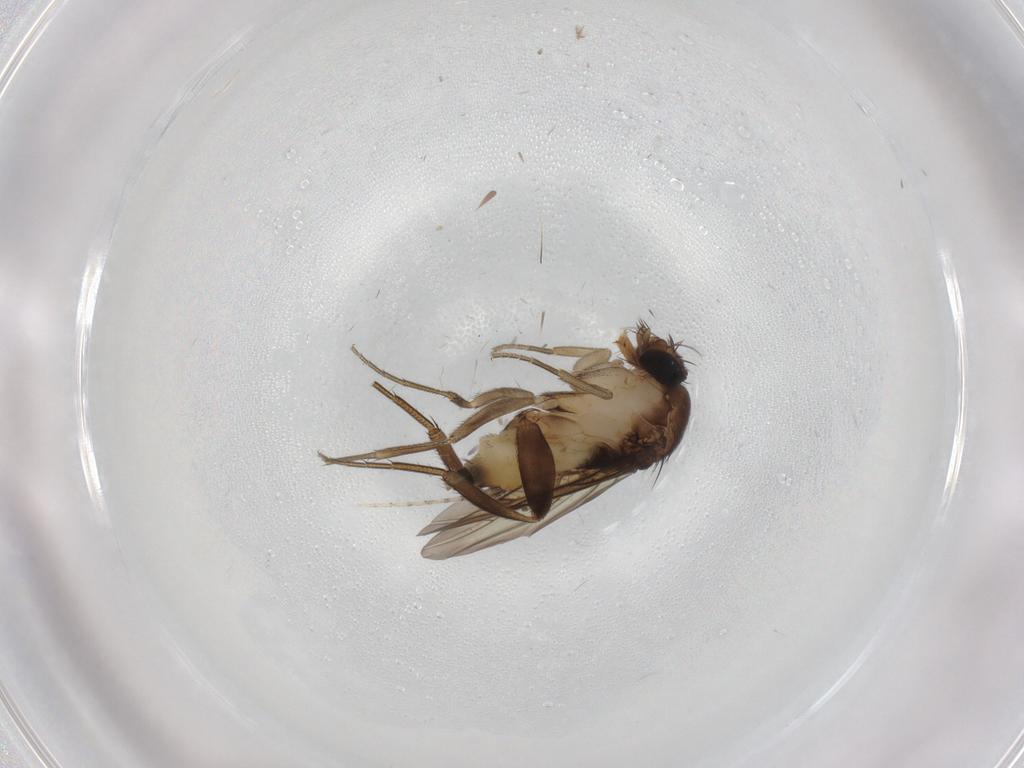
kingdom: Animalia
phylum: Arthropoda
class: Insecta
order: Diptera
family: Phoridae
